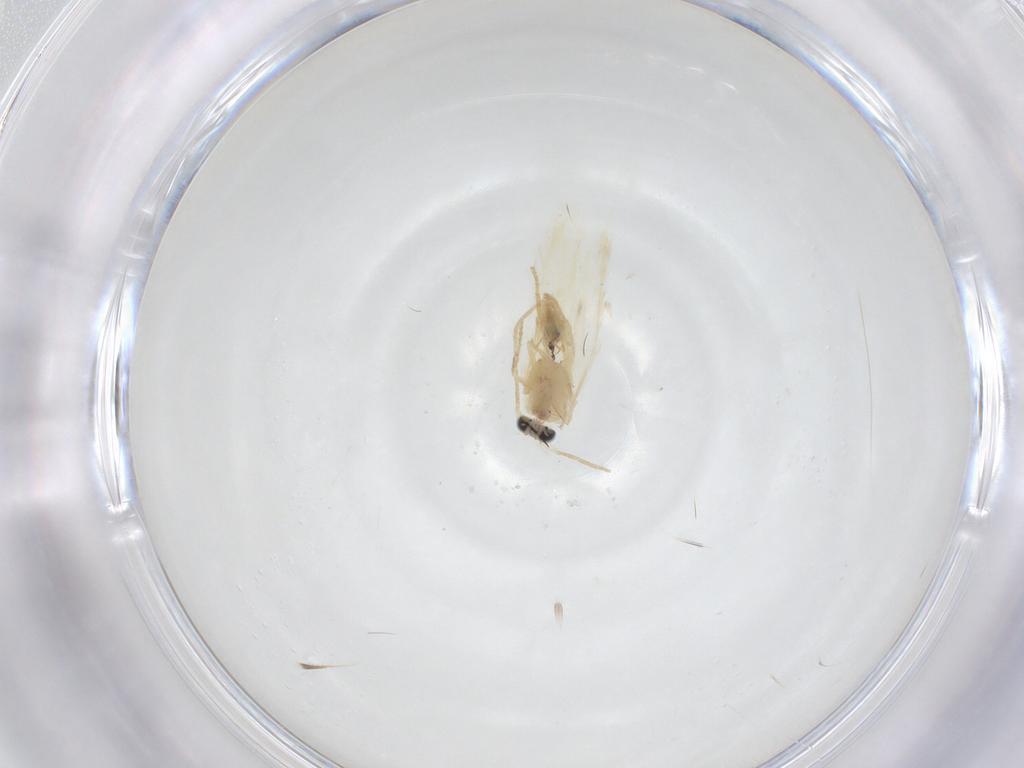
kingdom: Animalia
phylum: Arthropoda
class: Insecta
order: Lepidoptera
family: Nepticulidae
